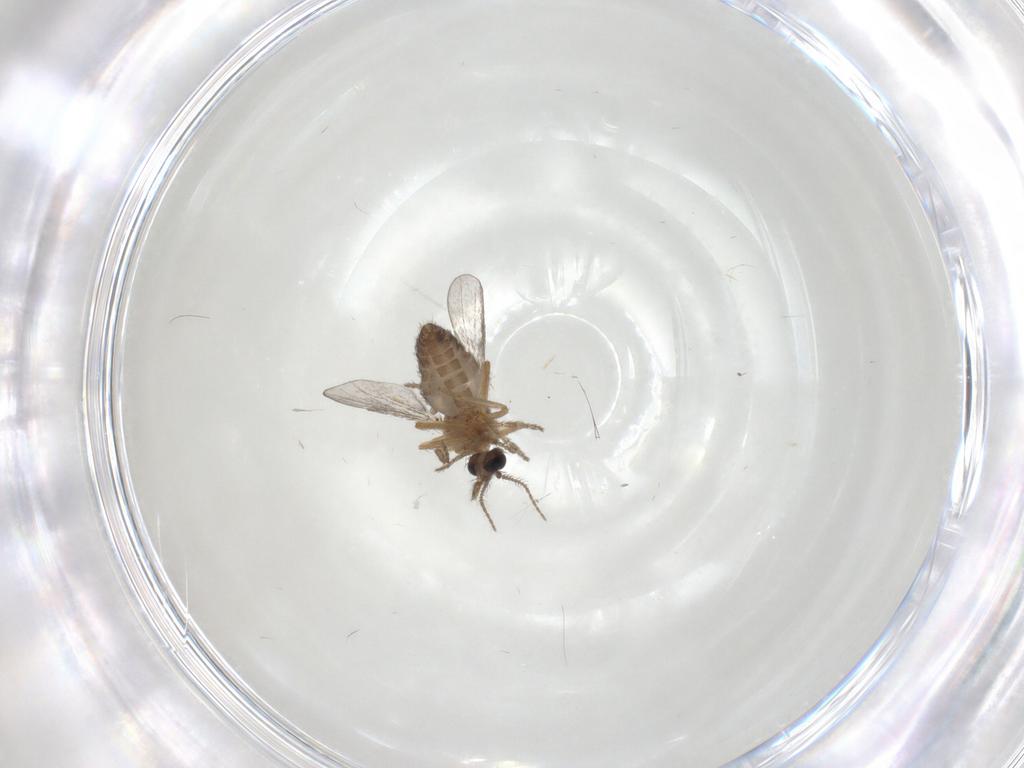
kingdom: Animalia
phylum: Arthropoda
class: Insecta
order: Diptera
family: Ceratopogonidae
